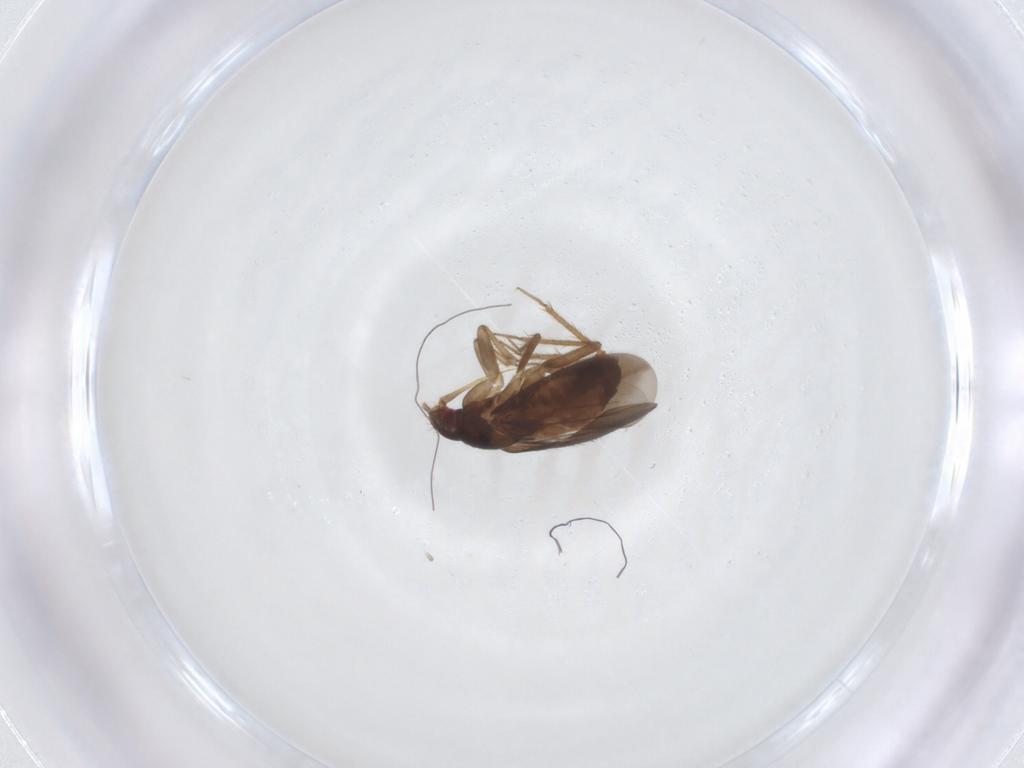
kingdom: Animalia
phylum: Arthropoda
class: Insecta
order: Hemiptera
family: Ceratocombidae
